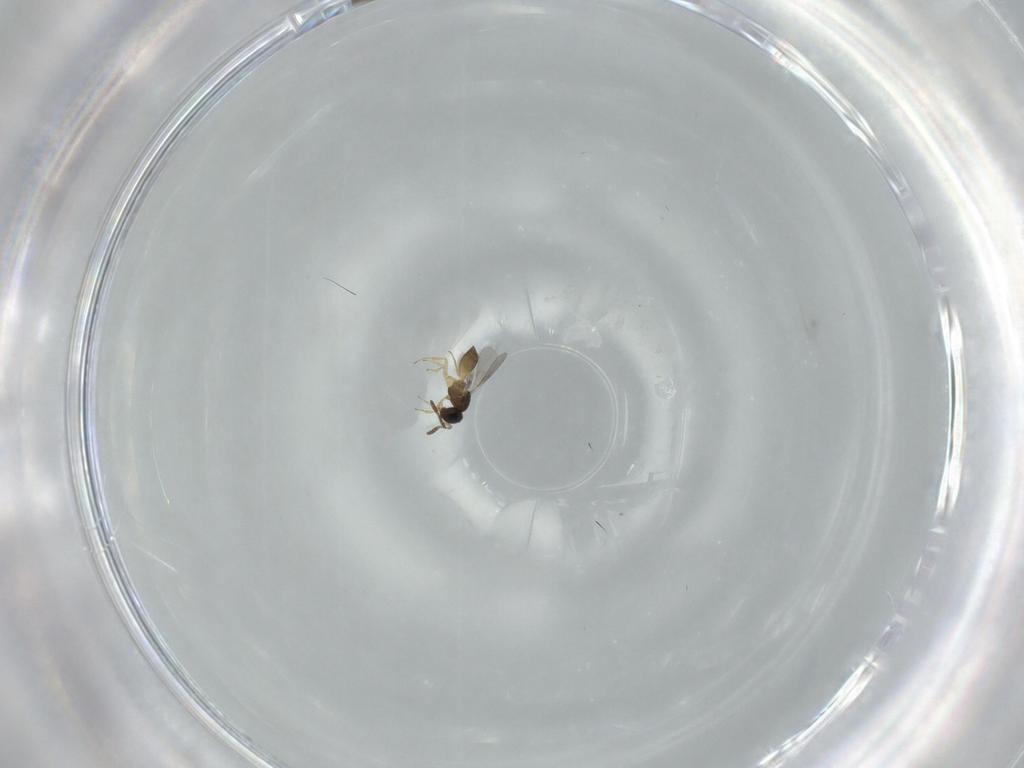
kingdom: Animalia
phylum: Arthropoda
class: Insecta
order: Hymenoptera
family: Scelionidae
